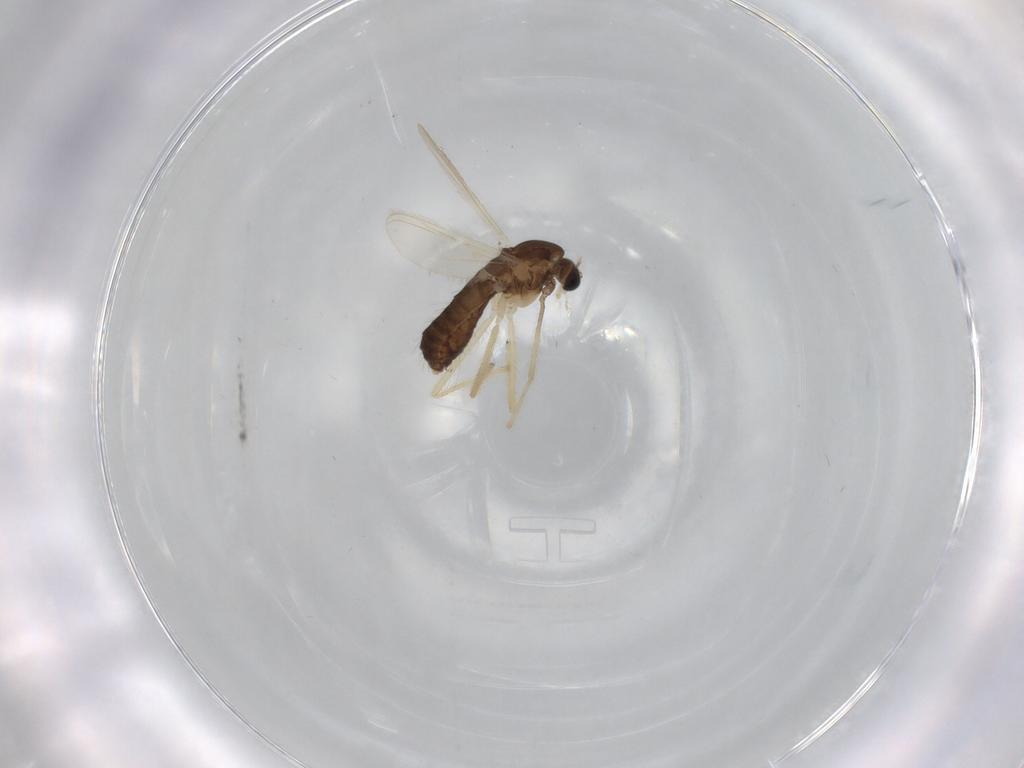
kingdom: Animalia
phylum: Arthropoda
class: Insecta
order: Diptera
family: Chironomidae
